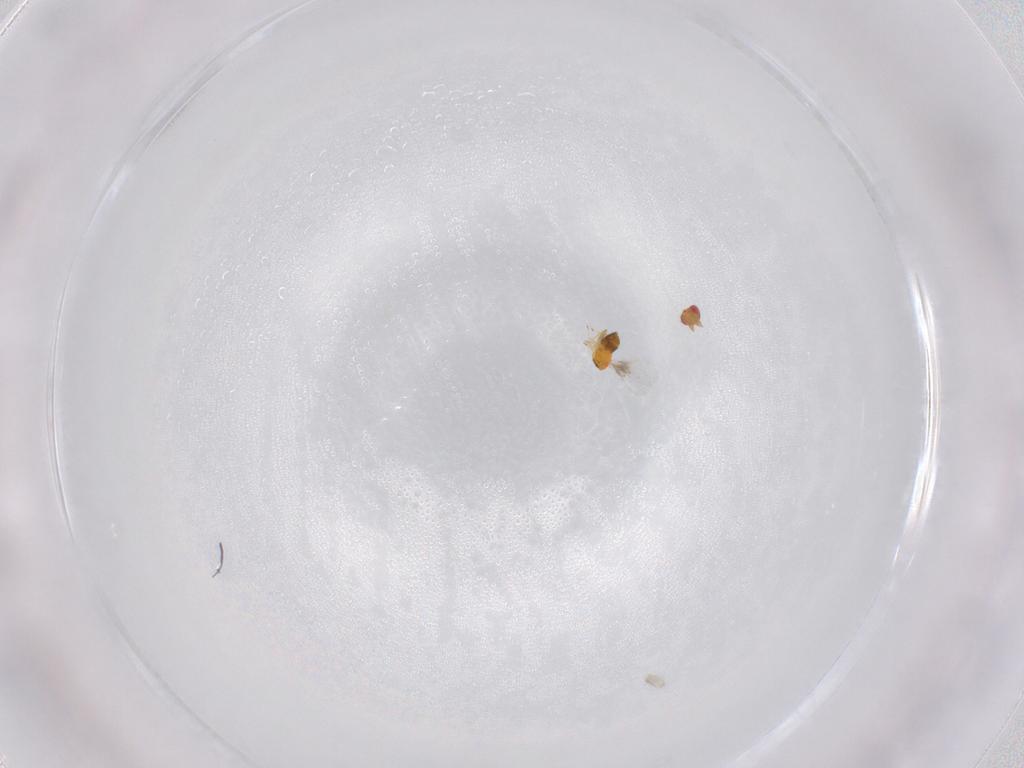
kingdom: Animalia
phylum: Arthropoda
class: Insecta
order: Hymenoptera
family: Trichogrammatidae
